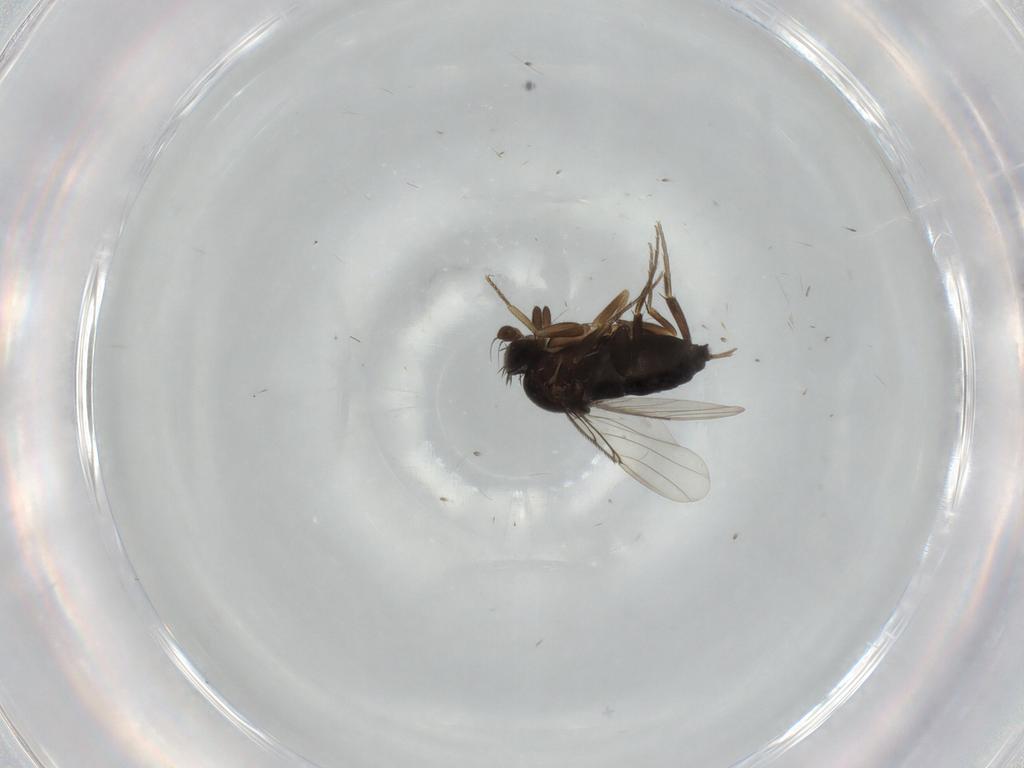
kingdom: Animalia
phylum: Arthropoda
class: Insecta
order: Diptera
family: Phoridae
